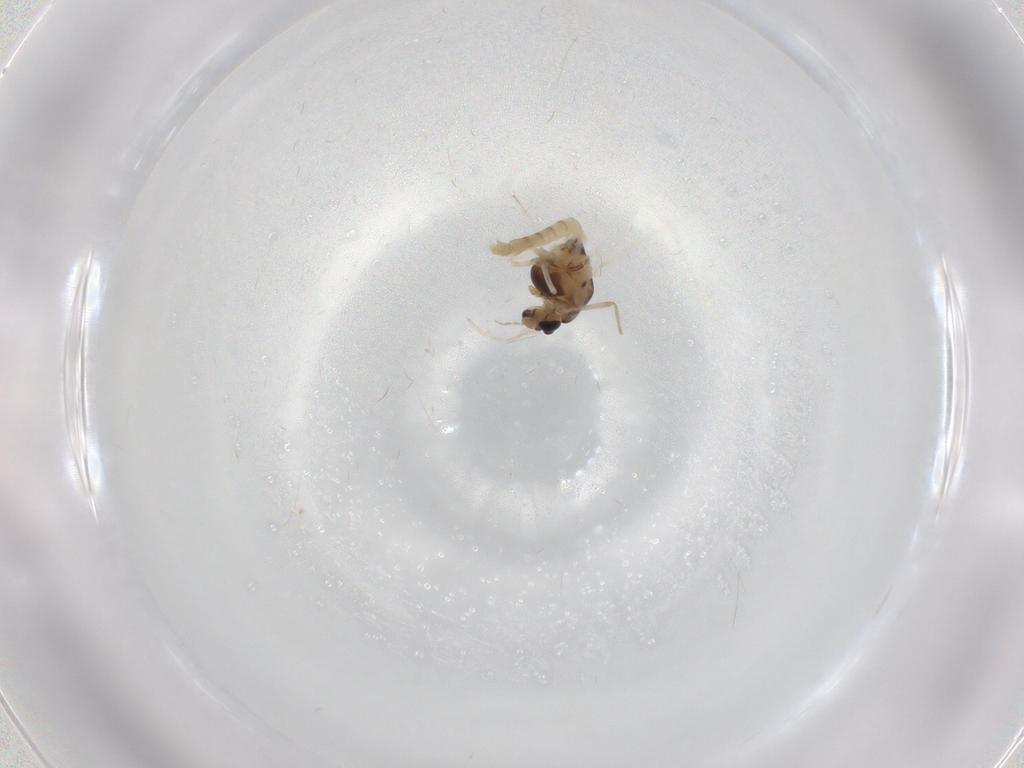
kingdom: Animalia
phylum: Arthropoda
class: Insecta
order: Diptera
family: Chironomidae
